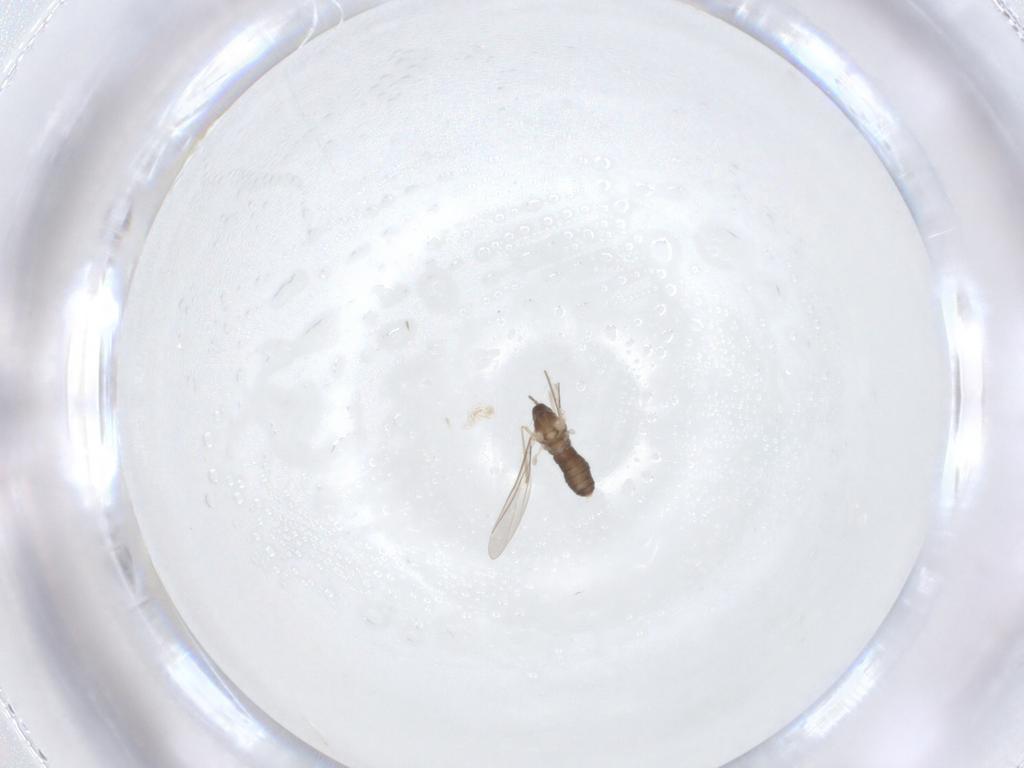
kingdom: Animalia
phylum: Arthropoda
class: Insecta
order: Diptera
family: Cecidomyiidae
